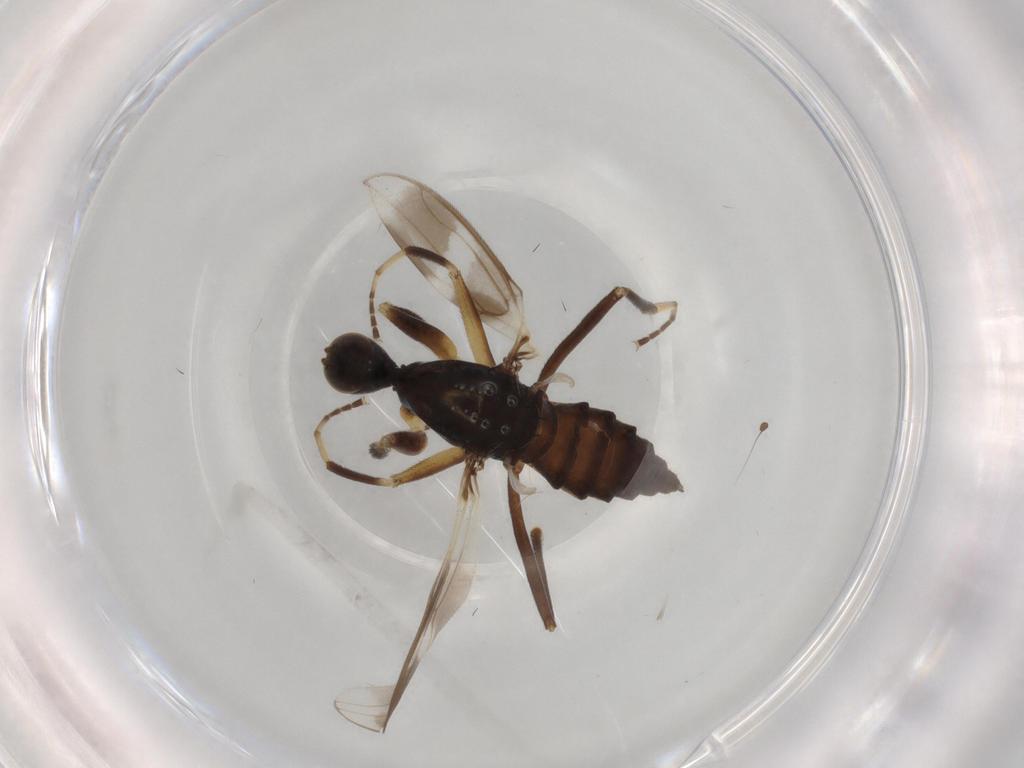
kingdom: Animalia
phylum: Arthropoda
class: Insecta
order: Diptera
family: Hybotidae
